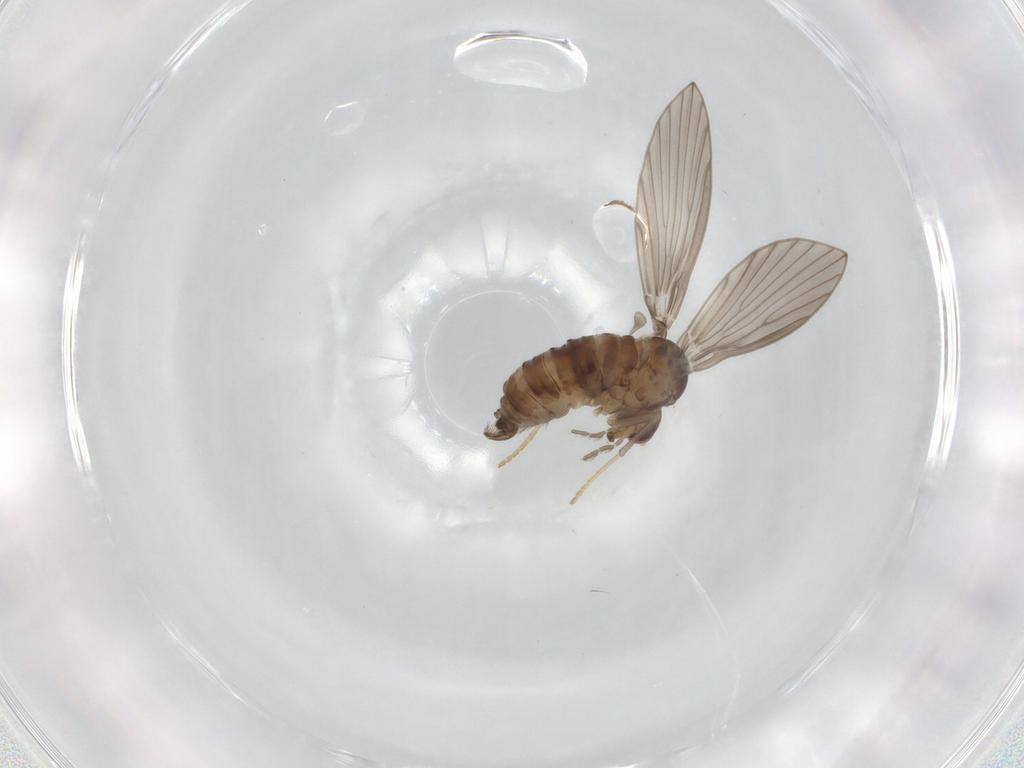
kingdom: Animalia
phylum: Arthropoda
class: Insecta
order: Diptera
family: Psychodidae
